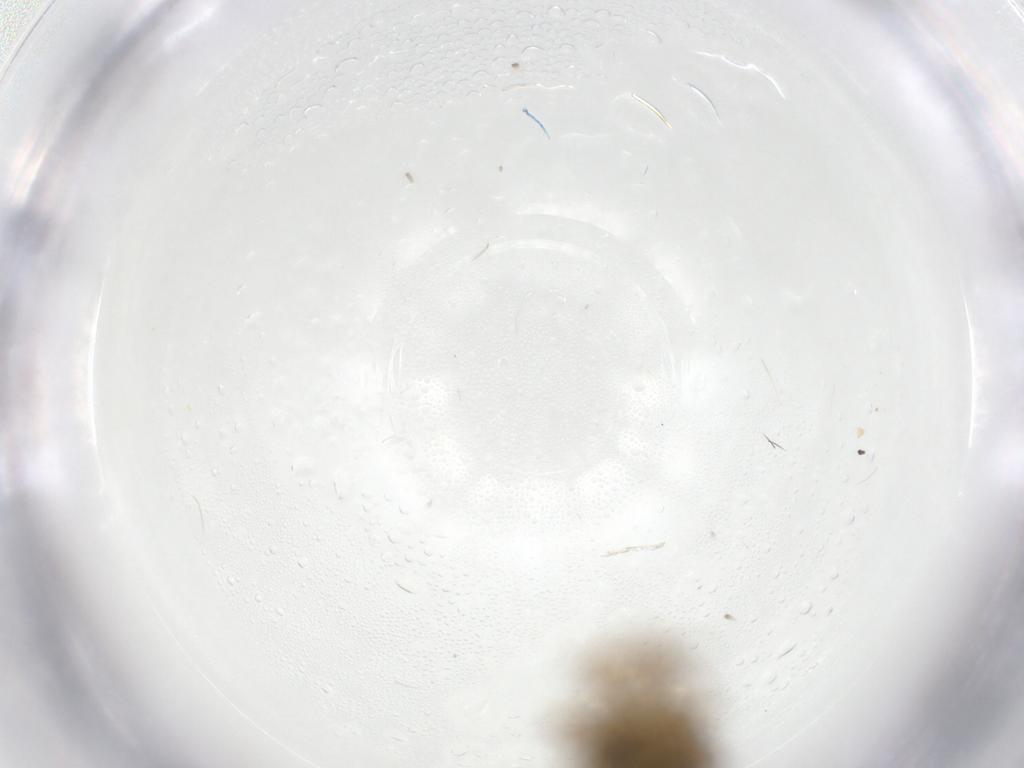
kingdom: Animalia
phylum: Arthropoda
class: Insecta
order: Hemiptera
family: Cicadellidae
